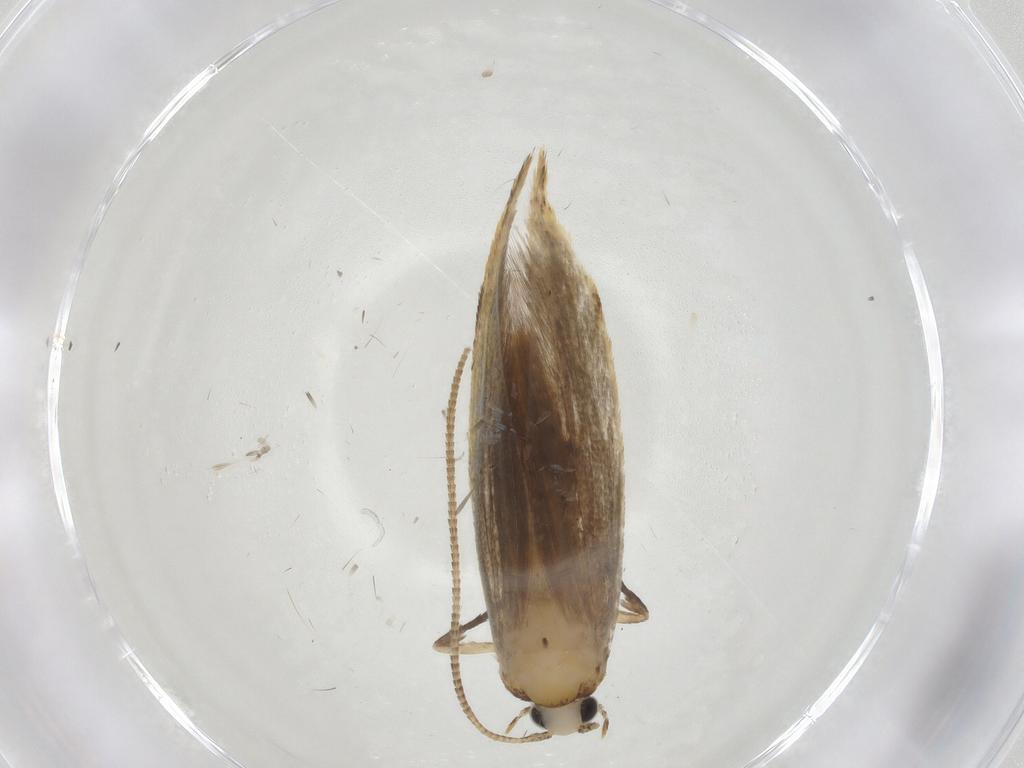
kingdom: Animalia
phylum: Arthropoda
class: Insecta
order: Lepidoptera
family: Tineidae
